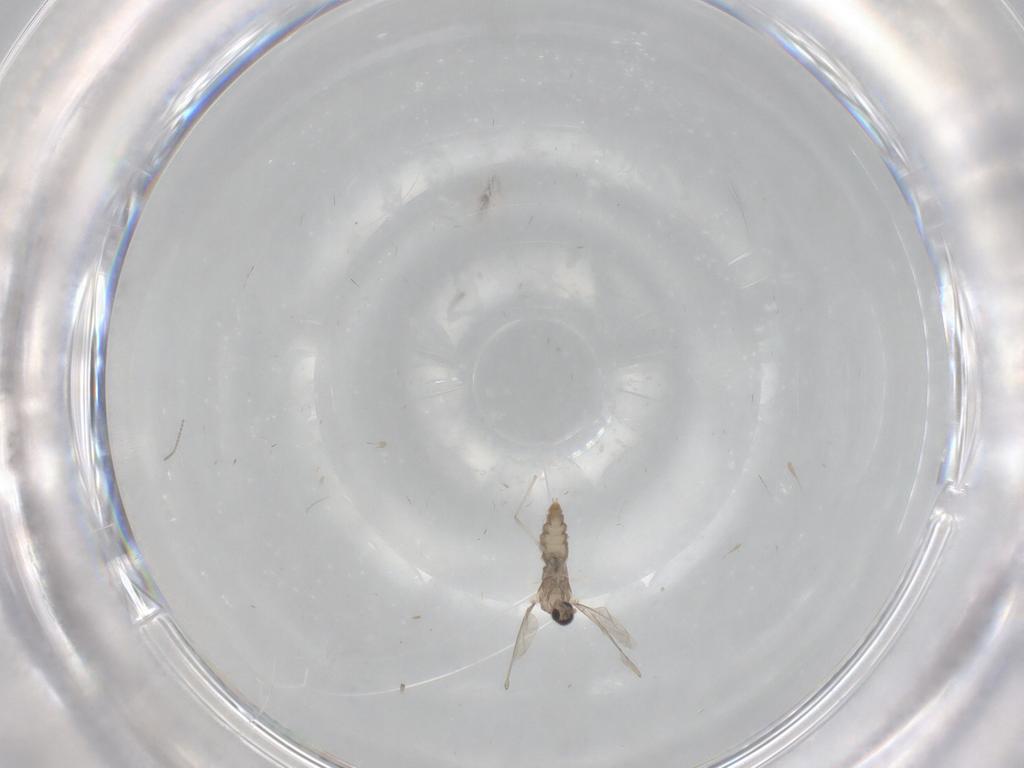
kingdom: Animalia
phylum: Arthropoda
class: Insecta
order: Diptera
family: Cecidomyiidae
